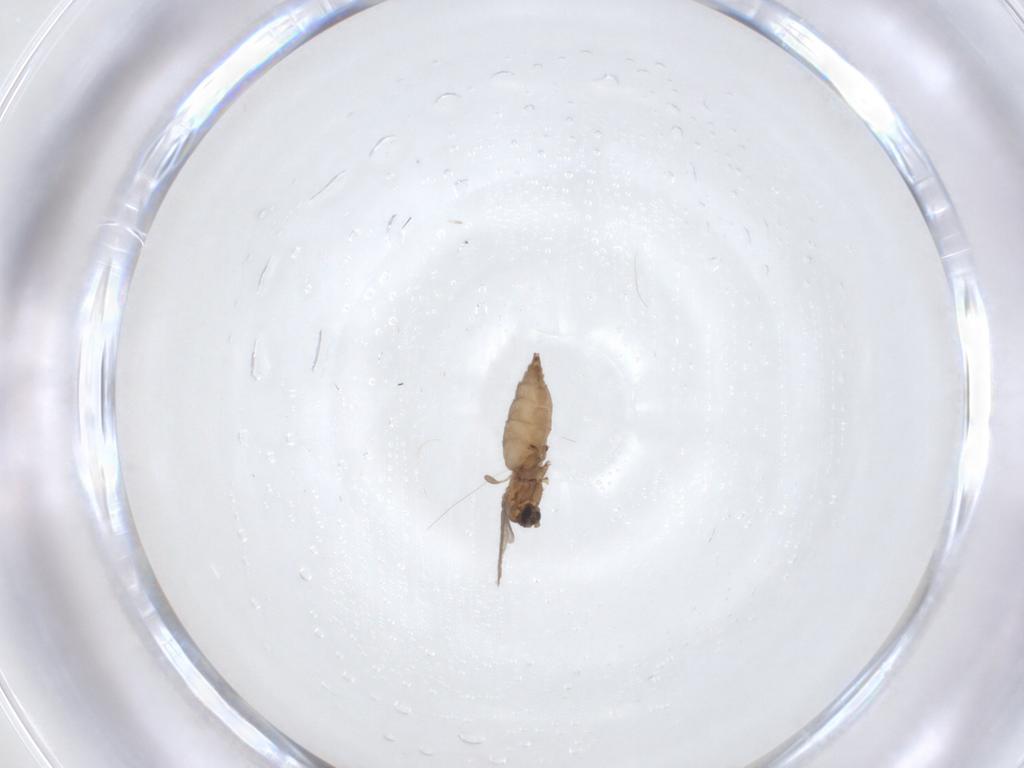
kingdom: Animalia
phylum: Arthropoda
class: Insecta
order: Diptera
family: Sciaridae
